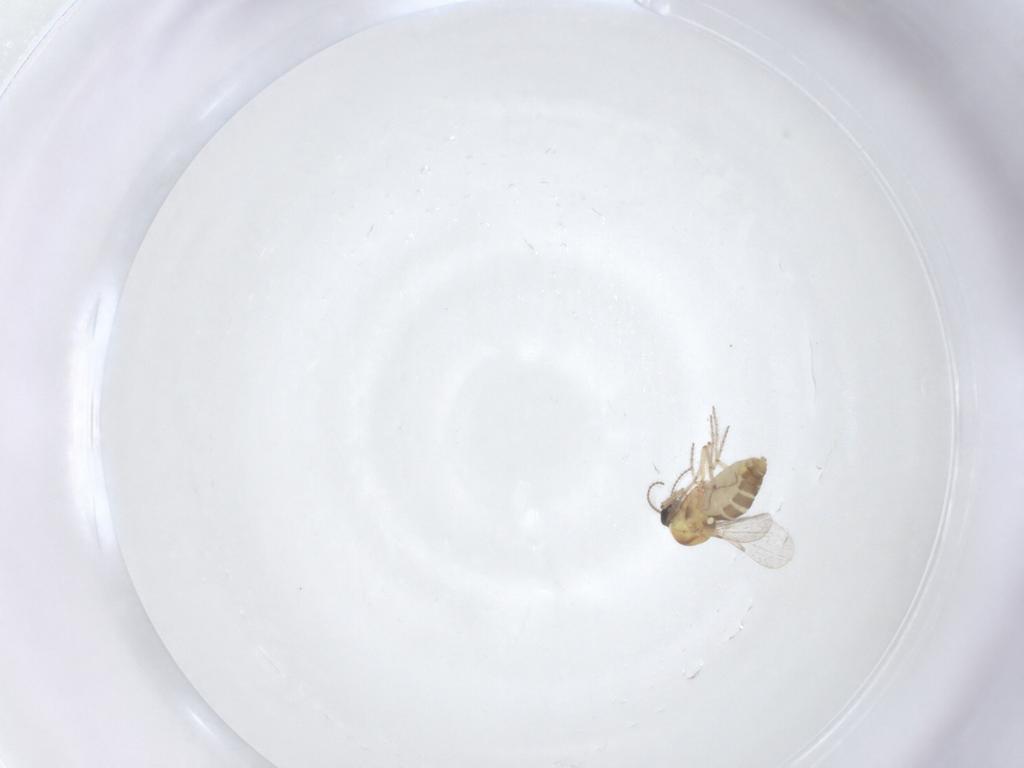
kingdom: Animalia
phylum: Arthropoda
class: Insecta
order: Diptera
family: Ceratopogonidae
